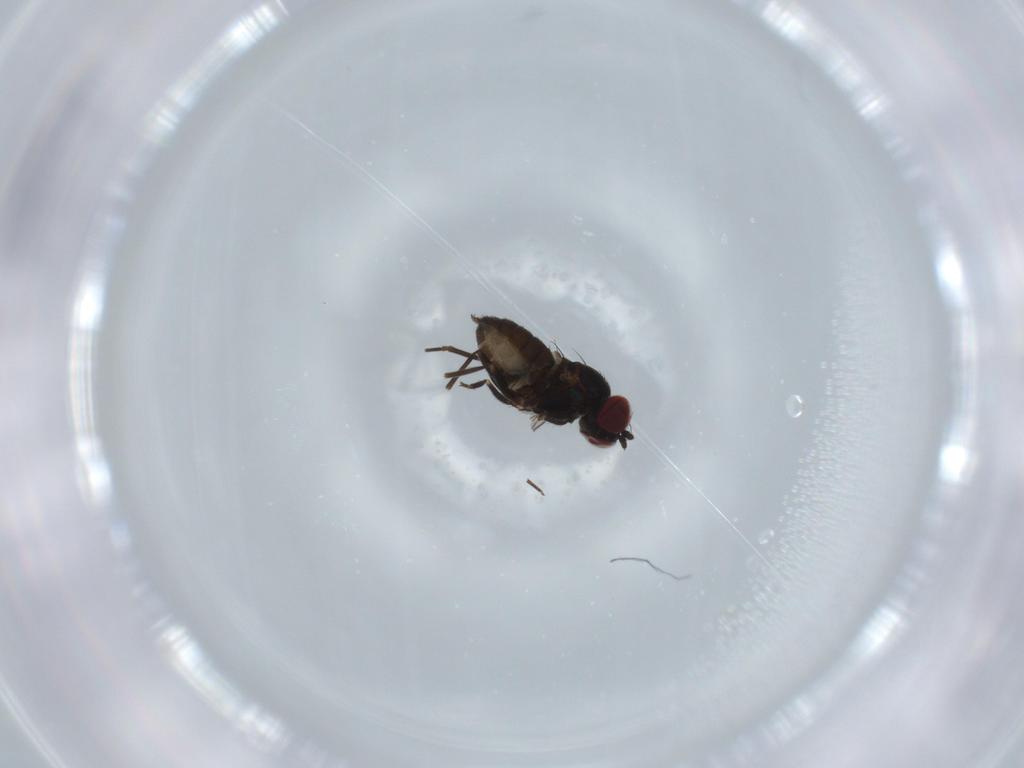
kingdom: Animalia
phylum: Arthropoda
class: Insecta
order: Diptera
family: Dolichopodidae
